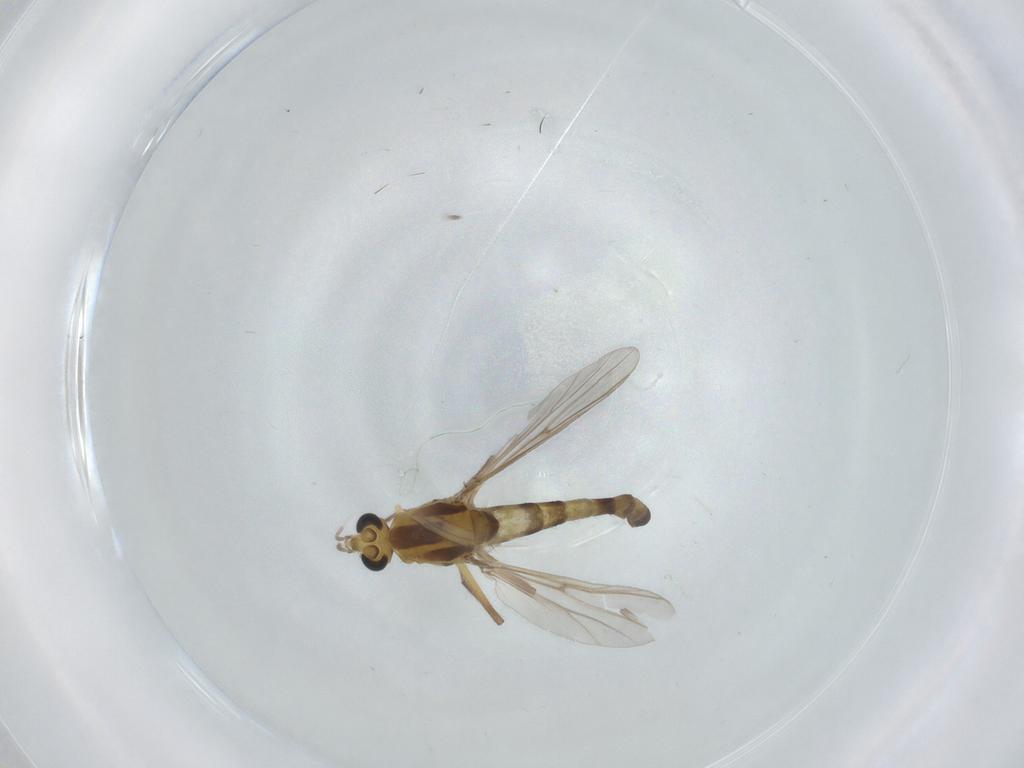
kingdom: Animalia
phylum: Arthropoda
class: Insecta
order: Diptera
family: Chironomidae
